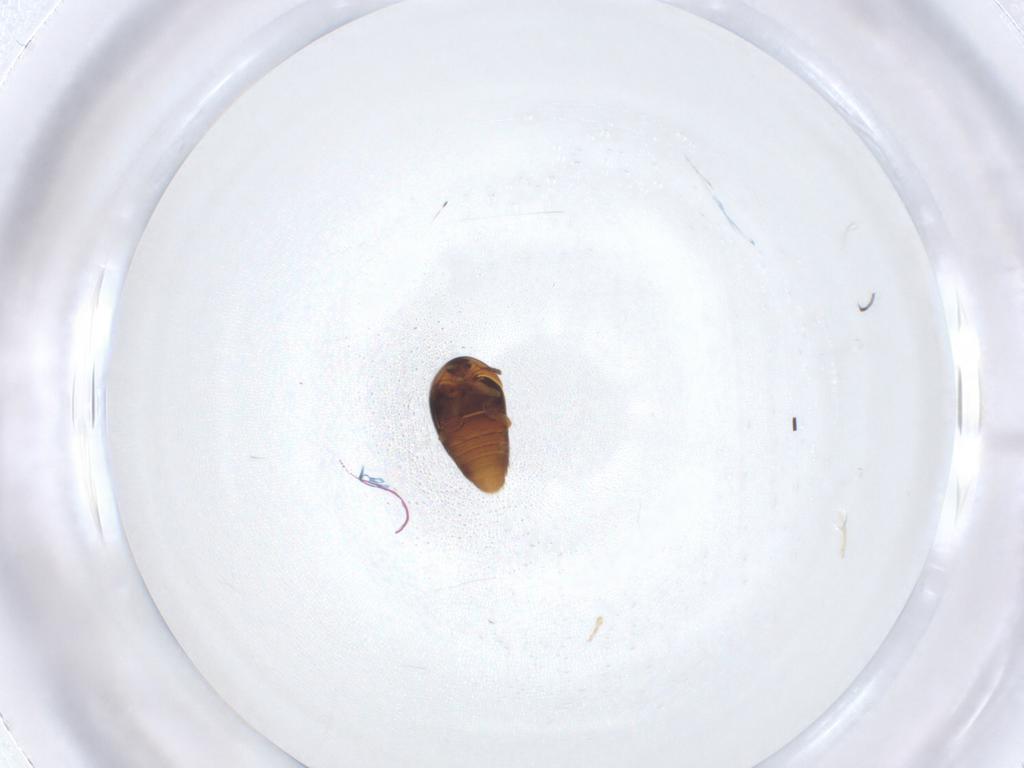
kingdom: Animalia
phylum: Arthropoda
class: Insecta
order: Coleoptera
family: Corylophidae
